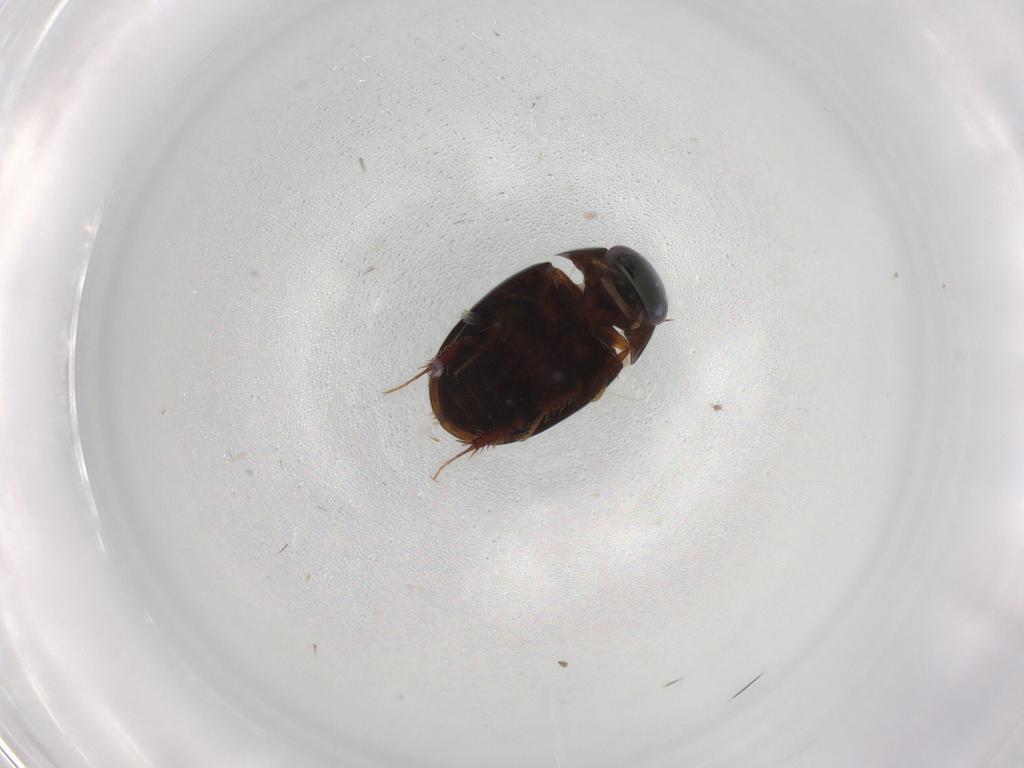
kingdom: Animalia
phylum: Arthropoda
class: Insecta
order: Coleoptera
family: Hydrophilidae
